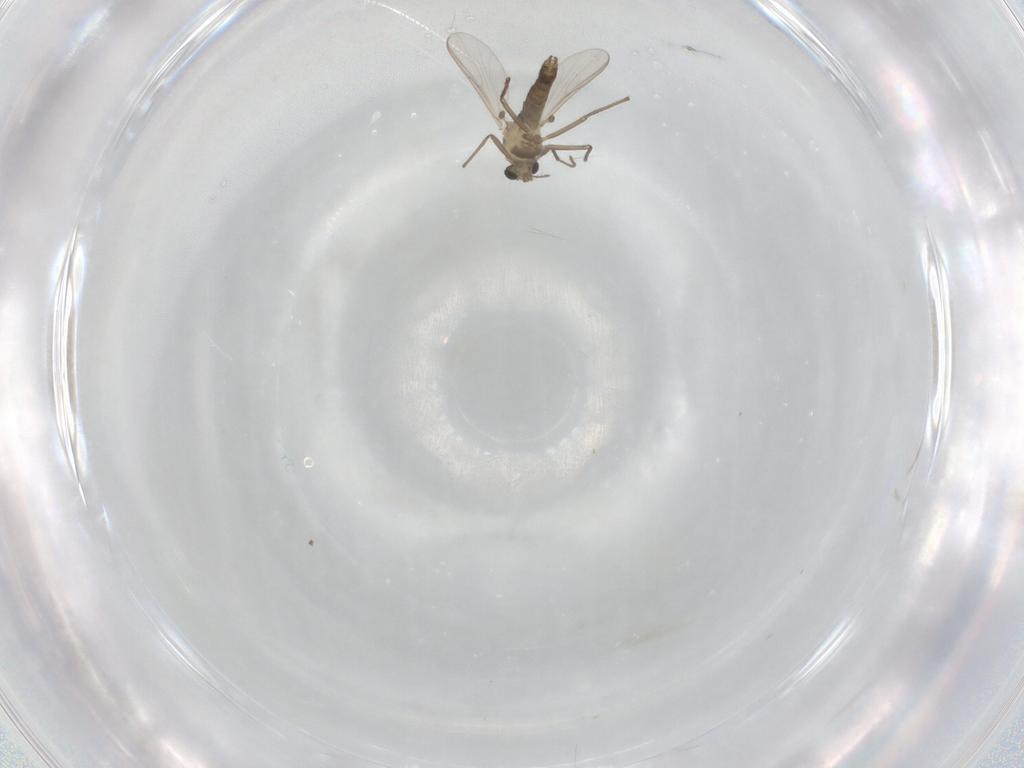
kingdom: Animalia
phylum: Arthropoda
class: Insecta
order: Diptera
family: Chironomidae
